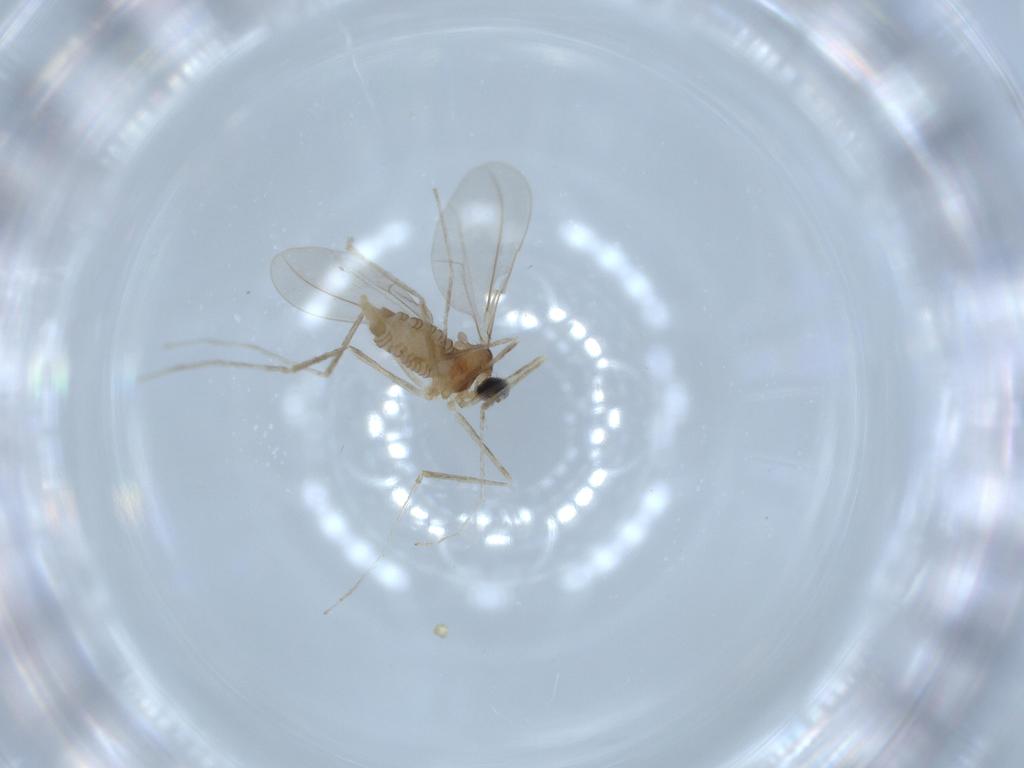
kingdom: Animalia
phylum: Arthropoda
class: Insecta
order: Diptera
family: Cecidomyiidae
